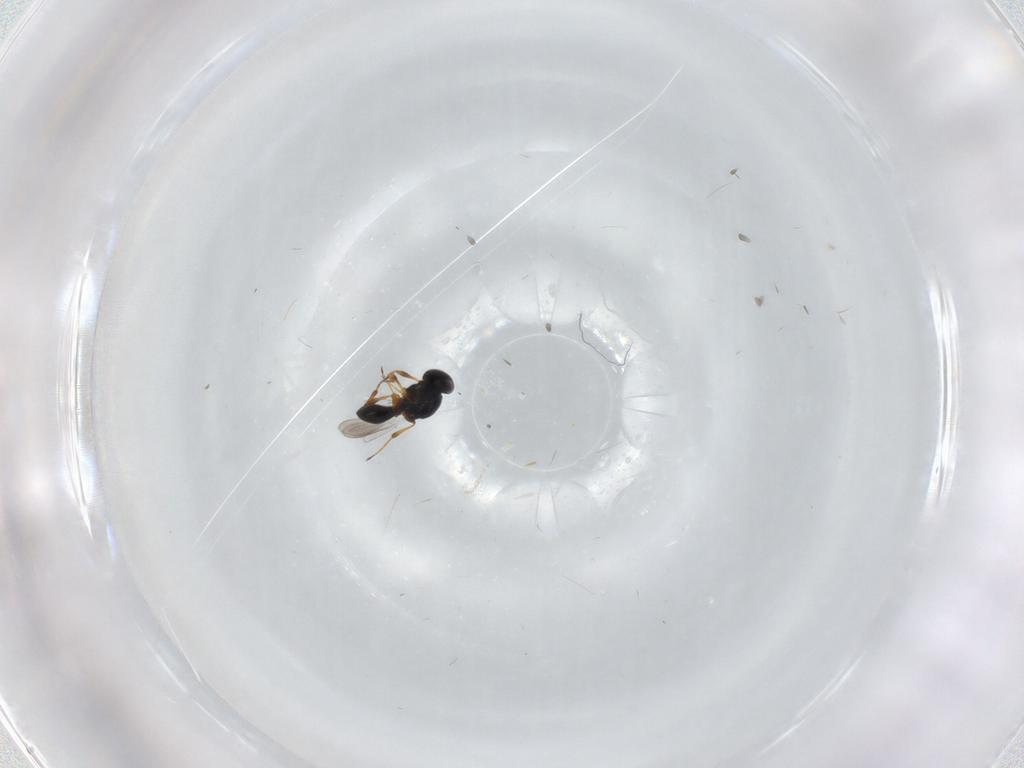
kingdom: Animalia
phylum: Arthropoda
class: Insecta
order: Hymenoptera
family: Platygastridae
